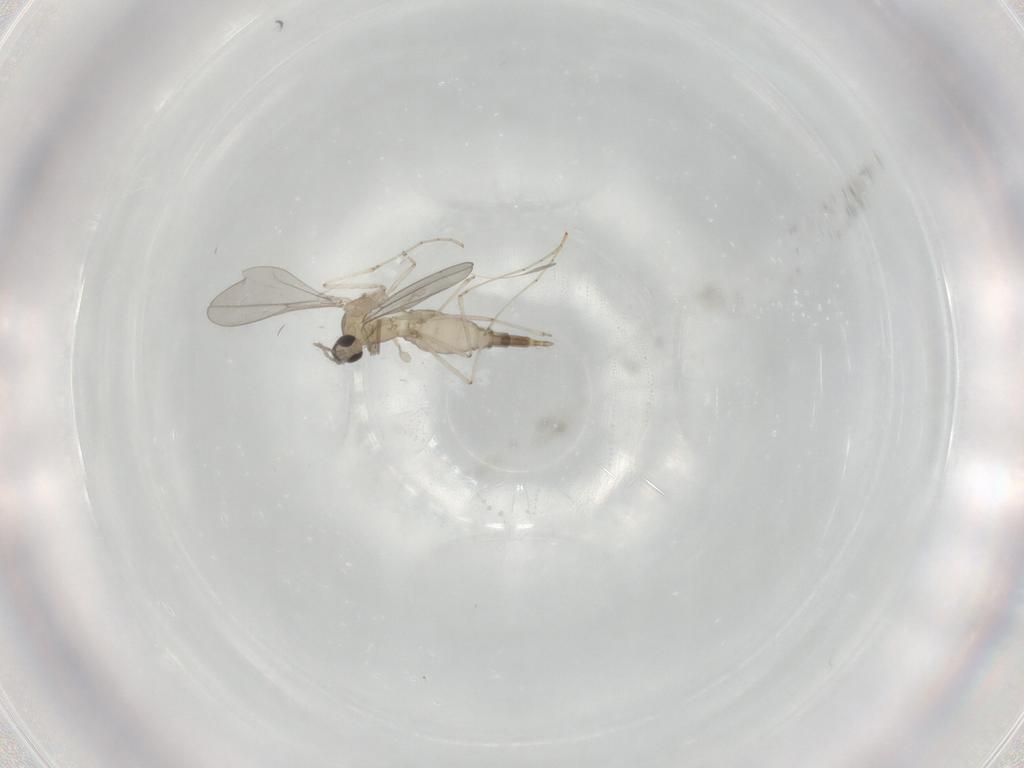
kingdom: Animalia
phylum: Arthropoda
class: Insecta
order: Diptera
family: Cecidomyiidae
